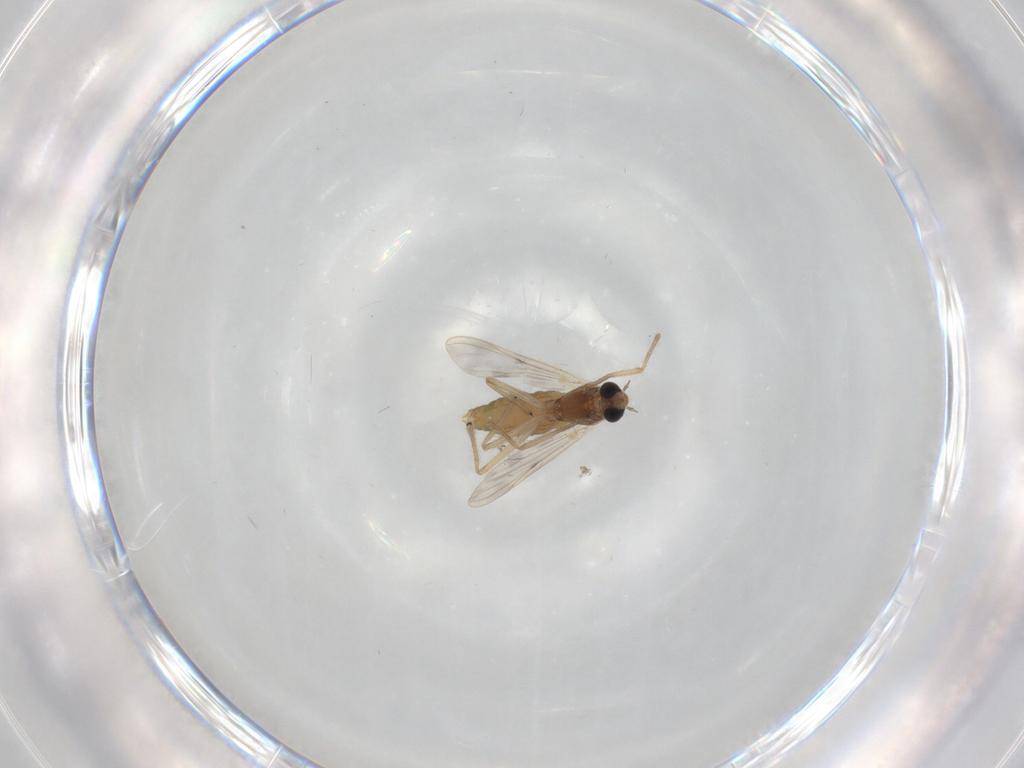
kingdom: Animalia
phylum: Arthropoda
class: Insecta
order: Diptera
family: Chironomidae
